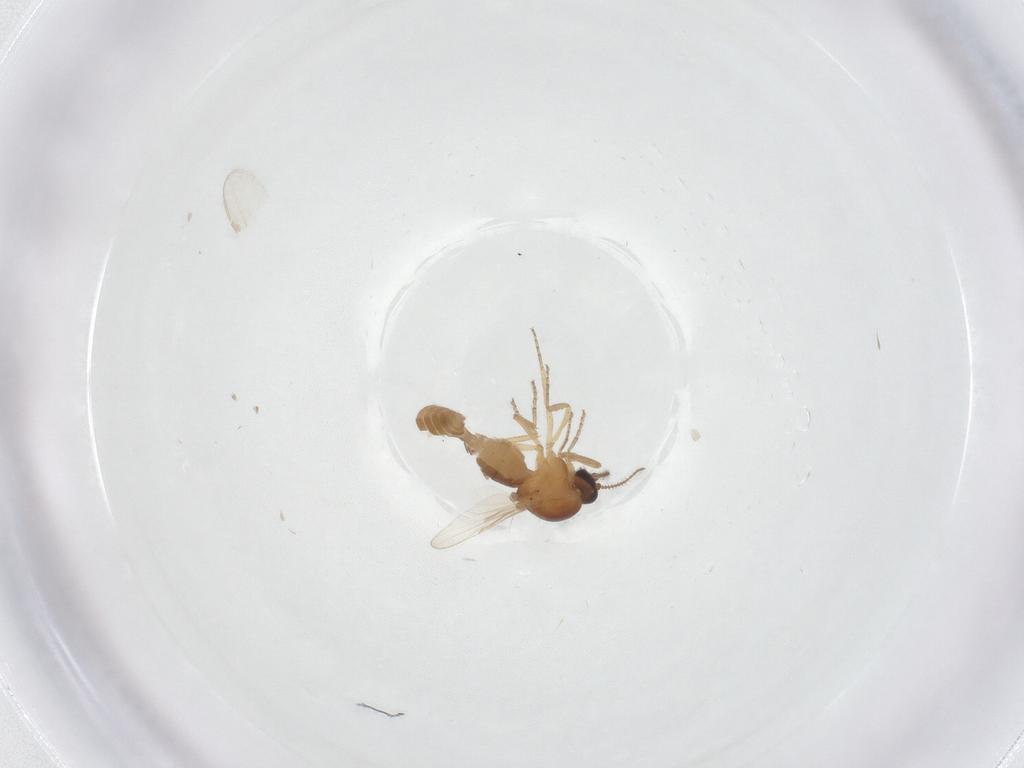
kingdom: Animalia
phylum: Arthropoda
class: Insecta
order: Diptera
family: Ceratopogonidae
